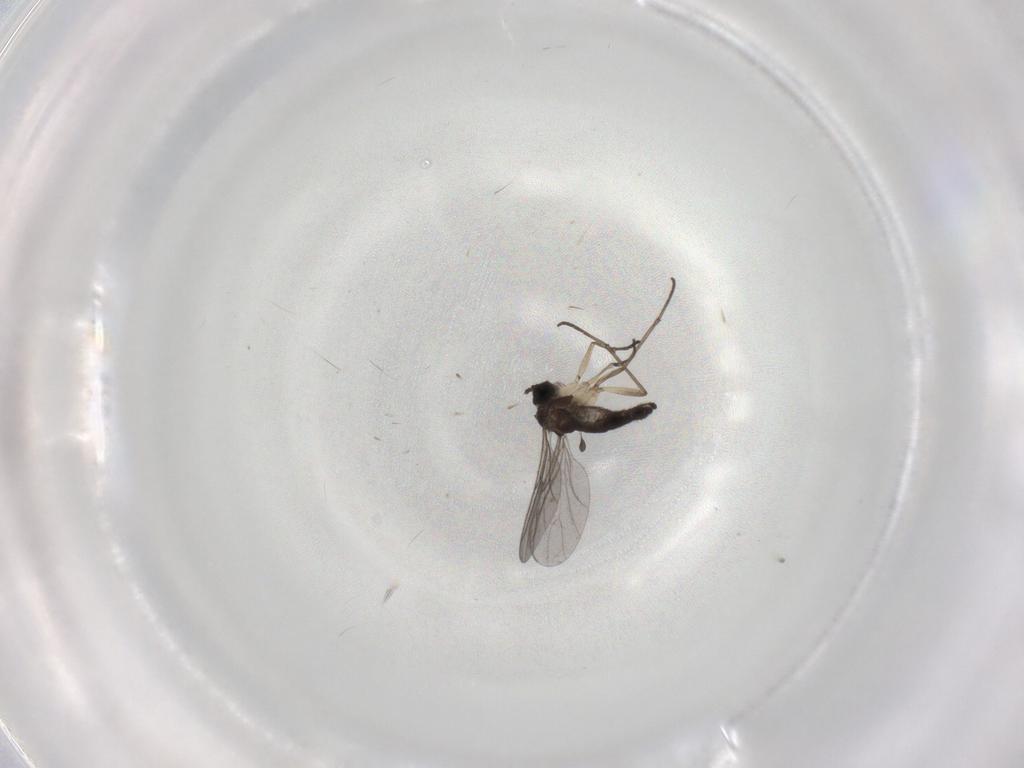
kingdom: Animalia
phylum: Arthropoda
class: Insecta
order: Diptera
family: Sciaridae
